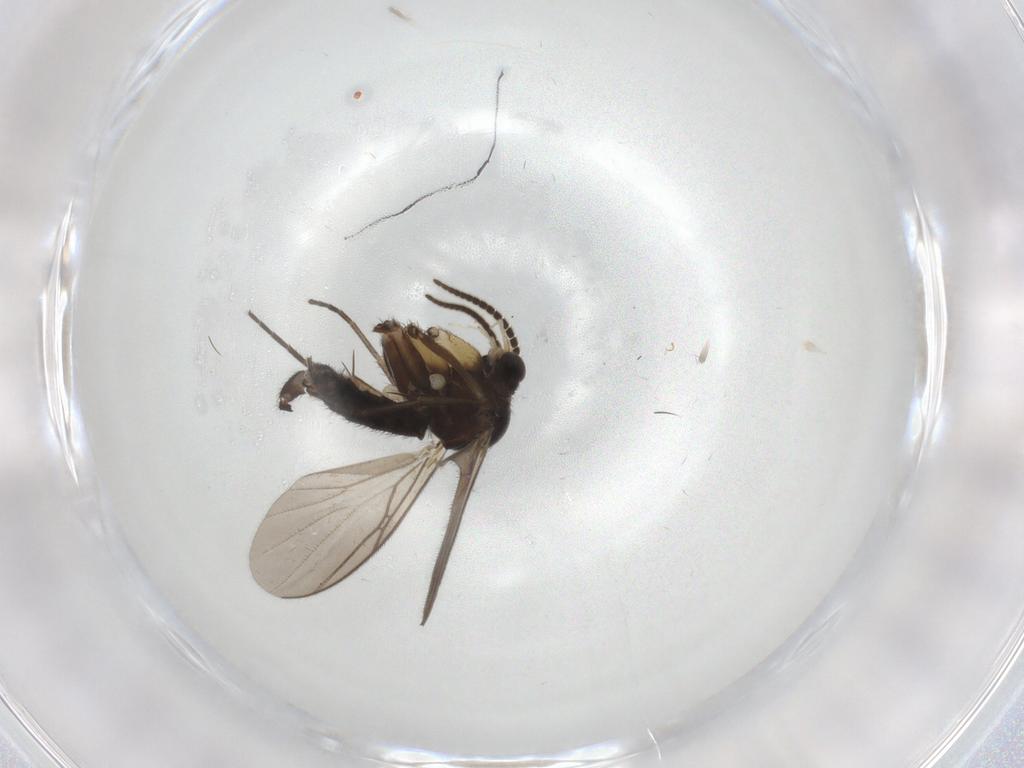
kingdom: Animalia
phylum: Arthropoda
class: Insecta
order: Diptera
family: Mycetophilidae
